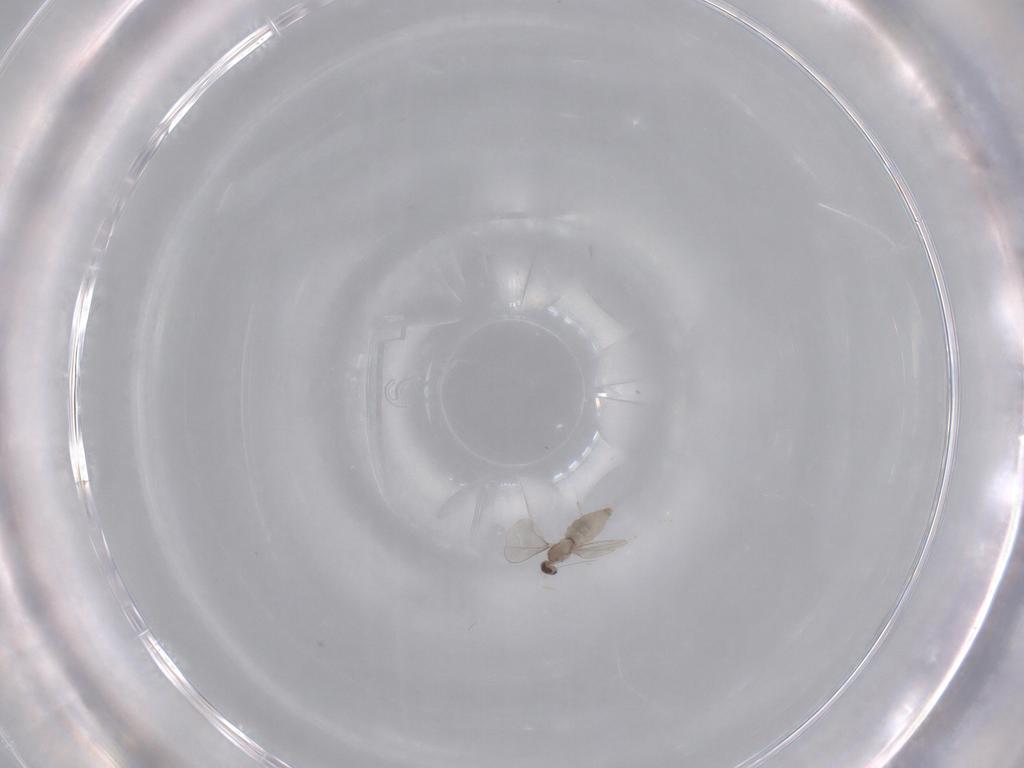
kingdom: Animalia
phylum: Arthropoda
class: Insecta
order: Diptera
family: Cecidomyiidae
